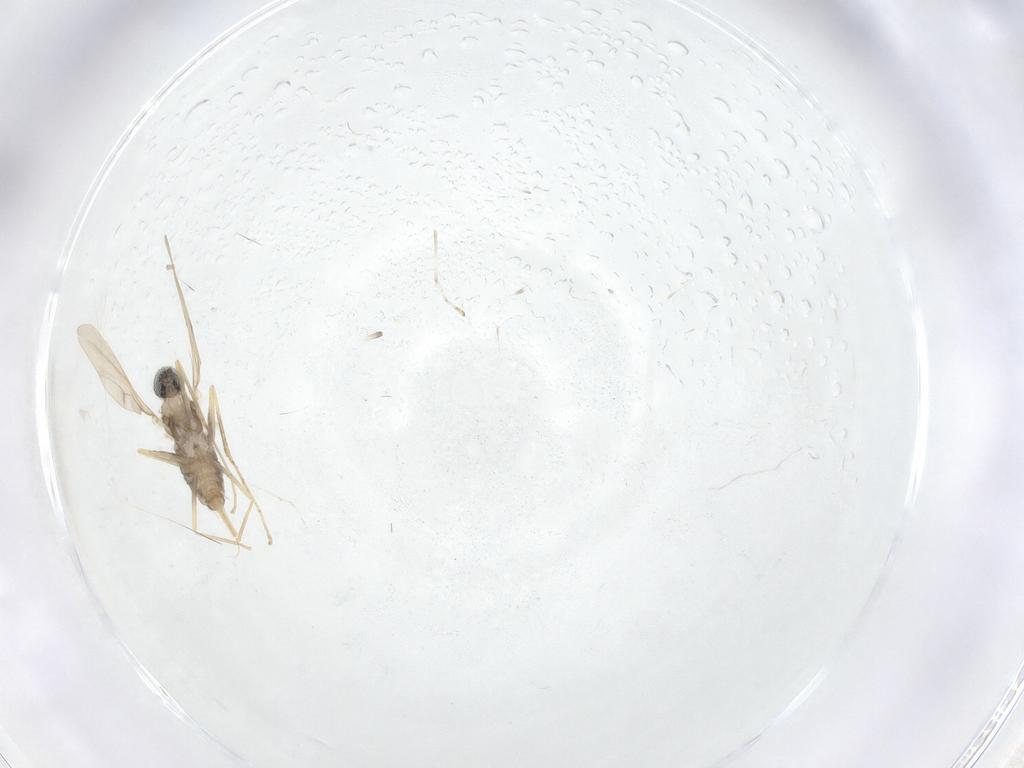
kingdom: Animalia
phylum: Arthropoda
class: Insecta
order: Diptera
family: Cecidomyiidae
